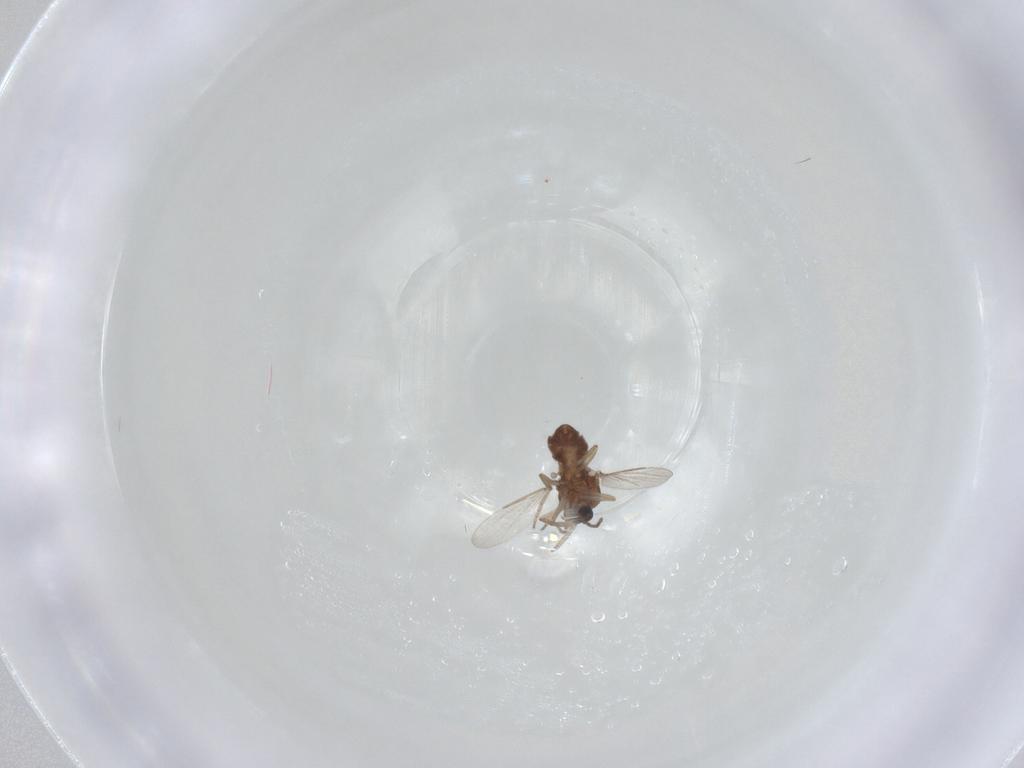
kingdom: Animalia
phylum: Arthropoda
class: Insecta
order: Diptera
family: Ceratopogonidae
